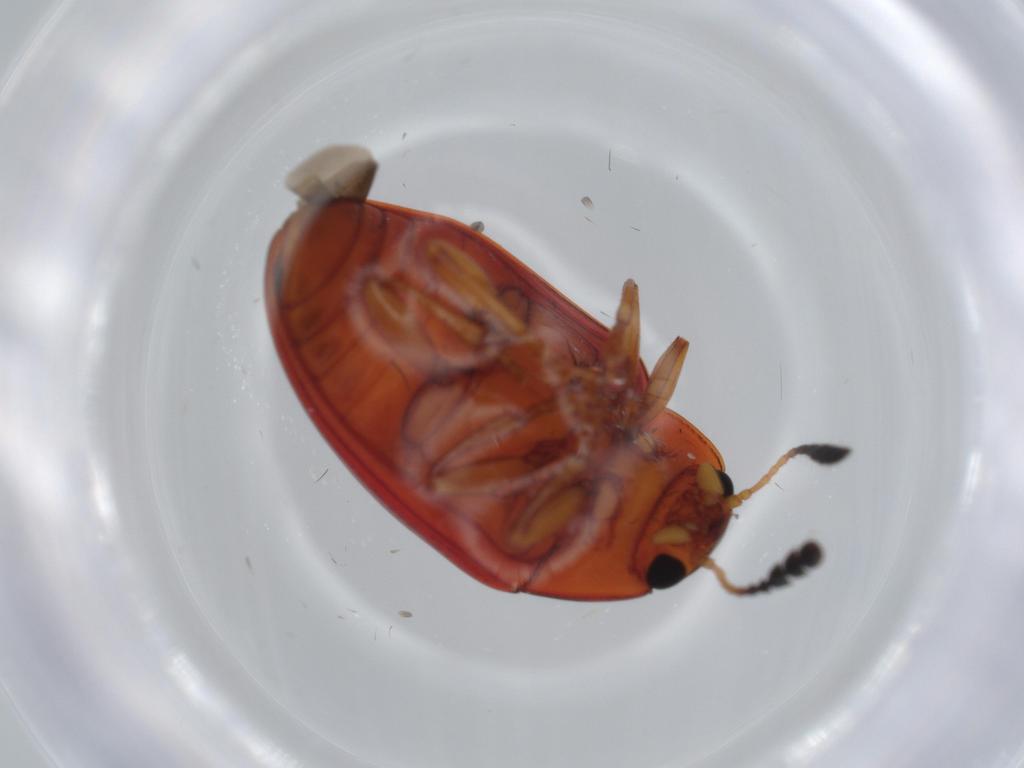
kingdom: Animalia
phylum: Arthropoda
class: Insecta
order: Coleoptera
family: Erotylidae
